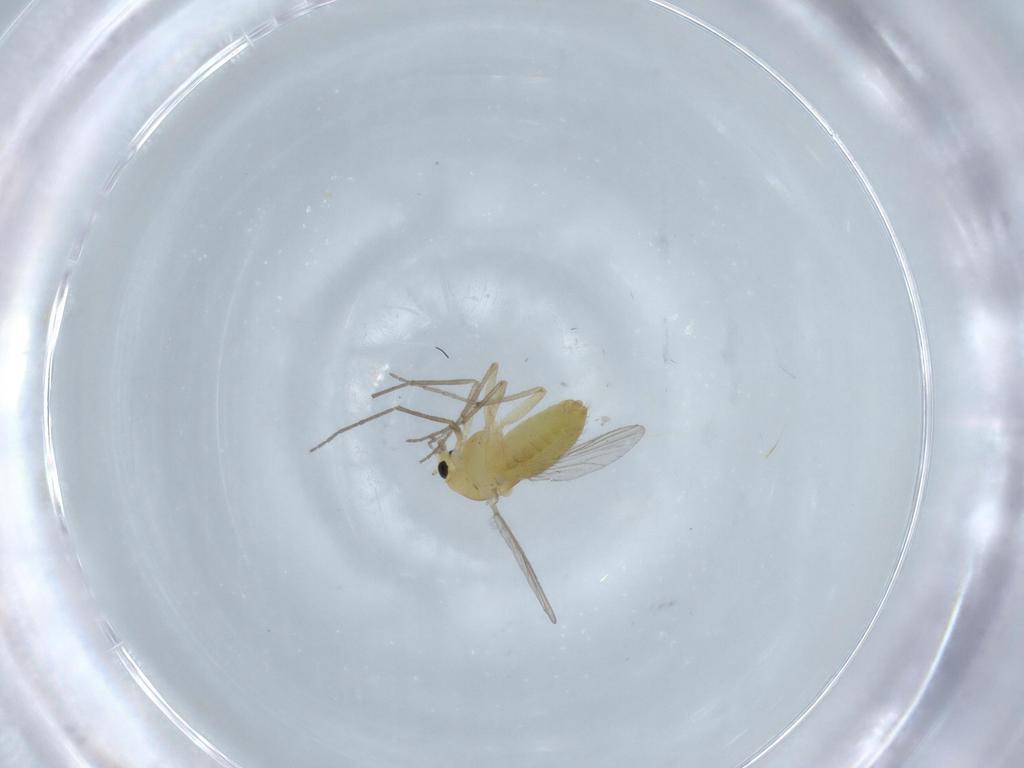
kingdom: Animalia
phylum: Arthropoda
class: Insecta
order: Diptera
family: Chironomidae
